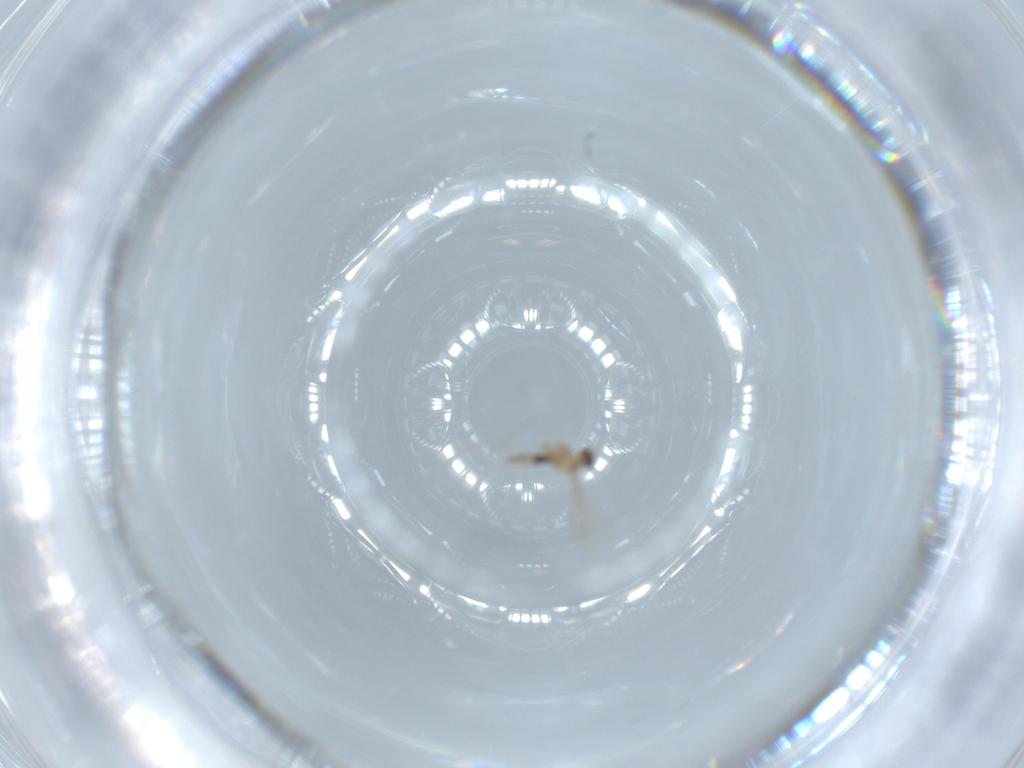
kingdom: Animalia
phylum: Arthropoda
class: Insecta
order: Diptera
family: Cecidomyiidae
